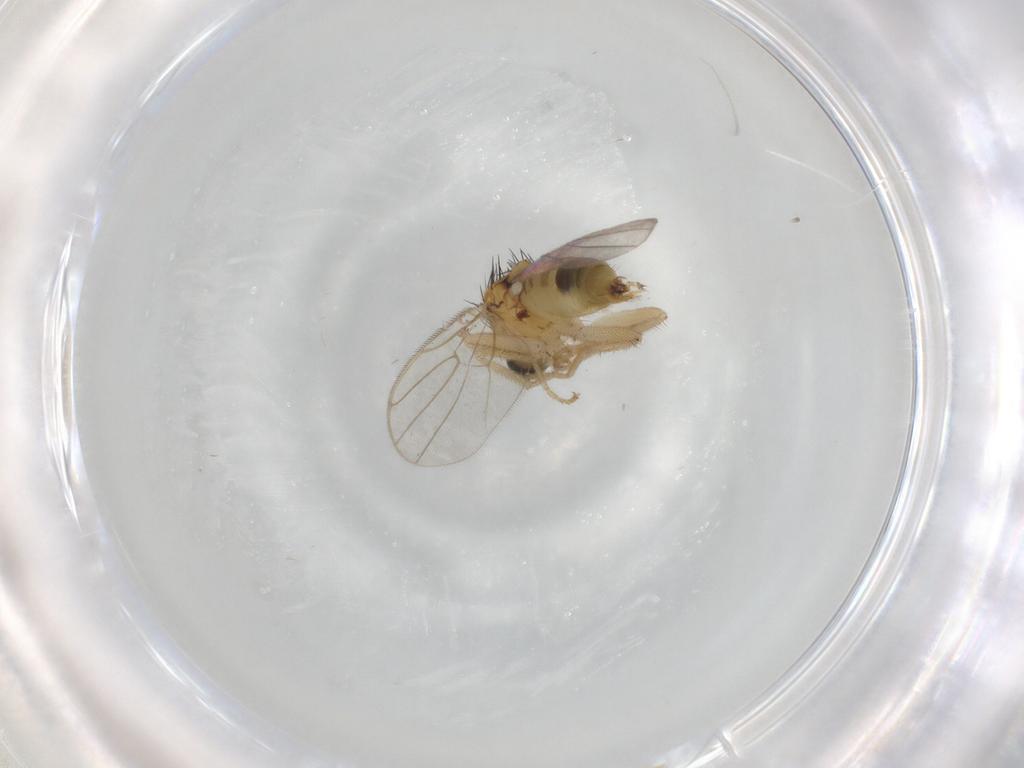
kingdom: Animalia
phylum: Arthropoda
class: Insecta
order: Diptera
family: Hybotidae
